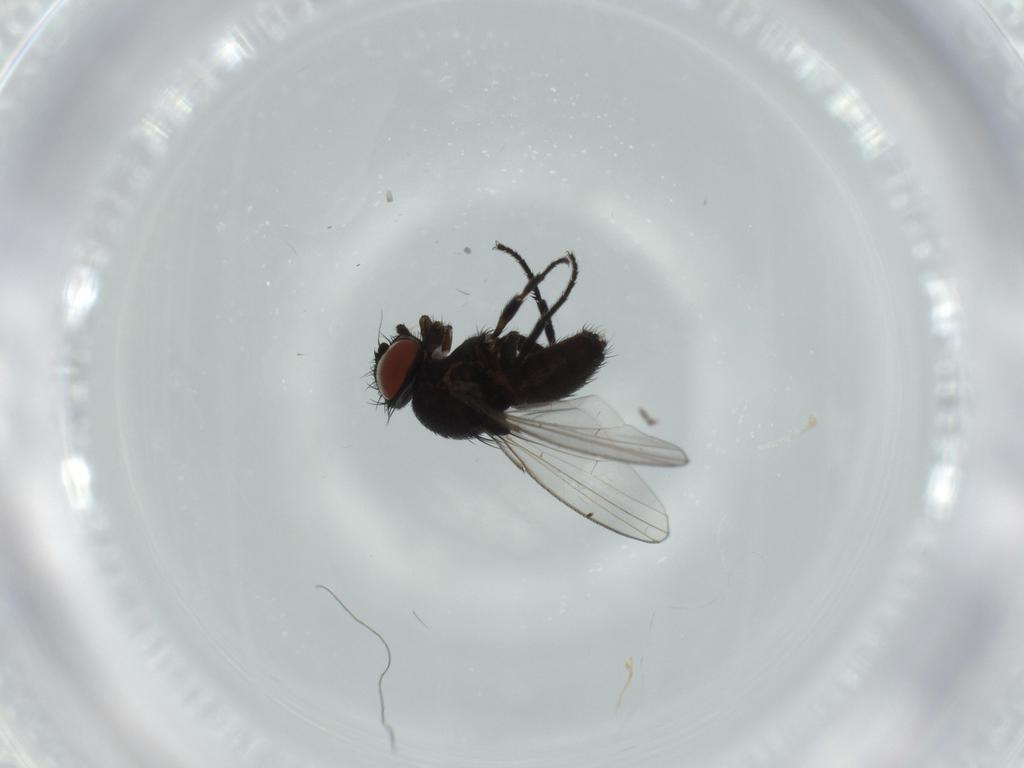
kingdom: Animalia
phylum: Arthropoda
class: Insecta
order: Diptera
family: Milichiidae
